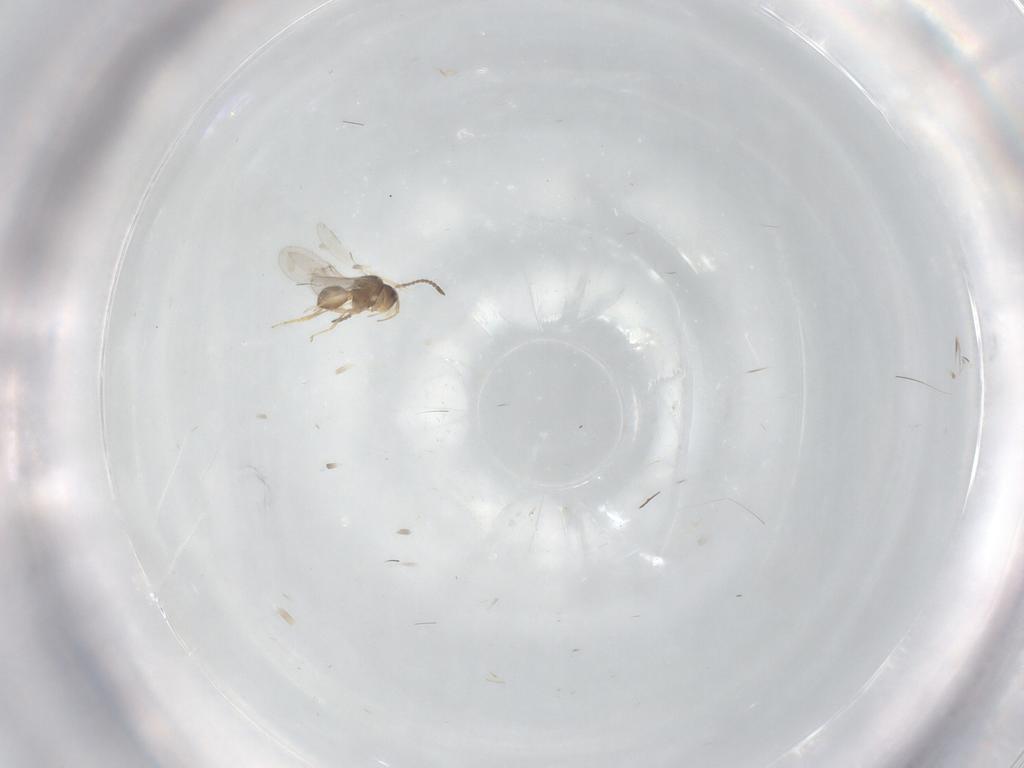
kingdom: Animalia
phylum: Arthropoda
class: Insecta
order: Hymenoptera
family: Scelionidae
